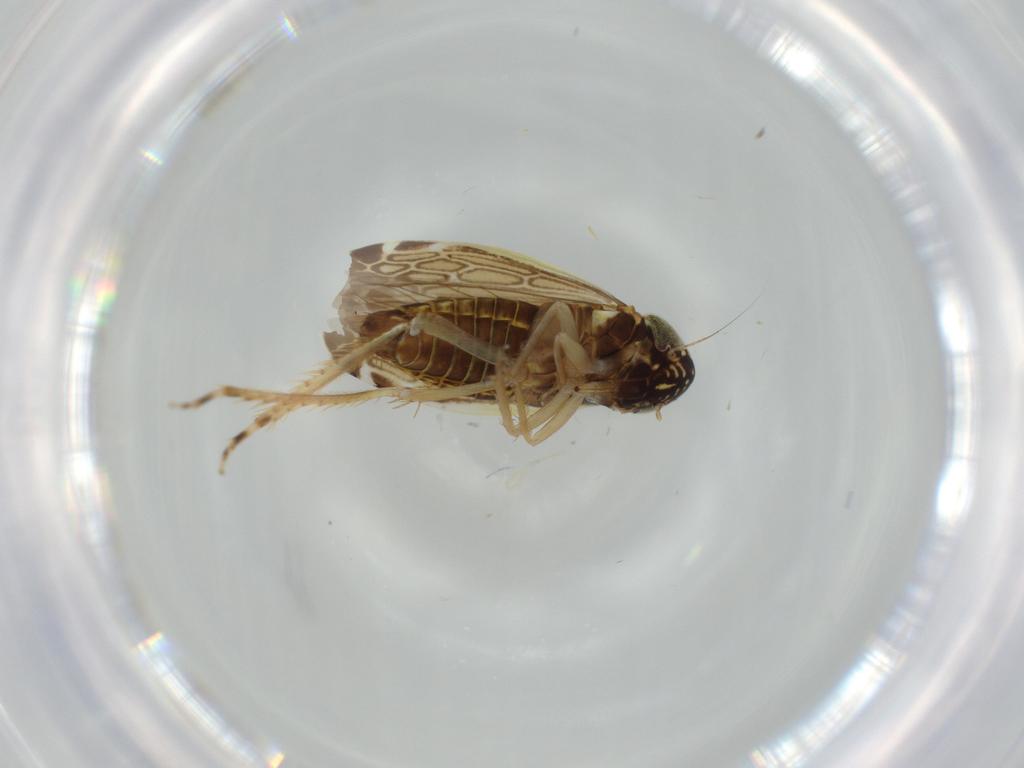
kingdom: Animalia
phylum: Arthropoda
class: Insecta
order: Hemiptera
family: Cicadellidae
